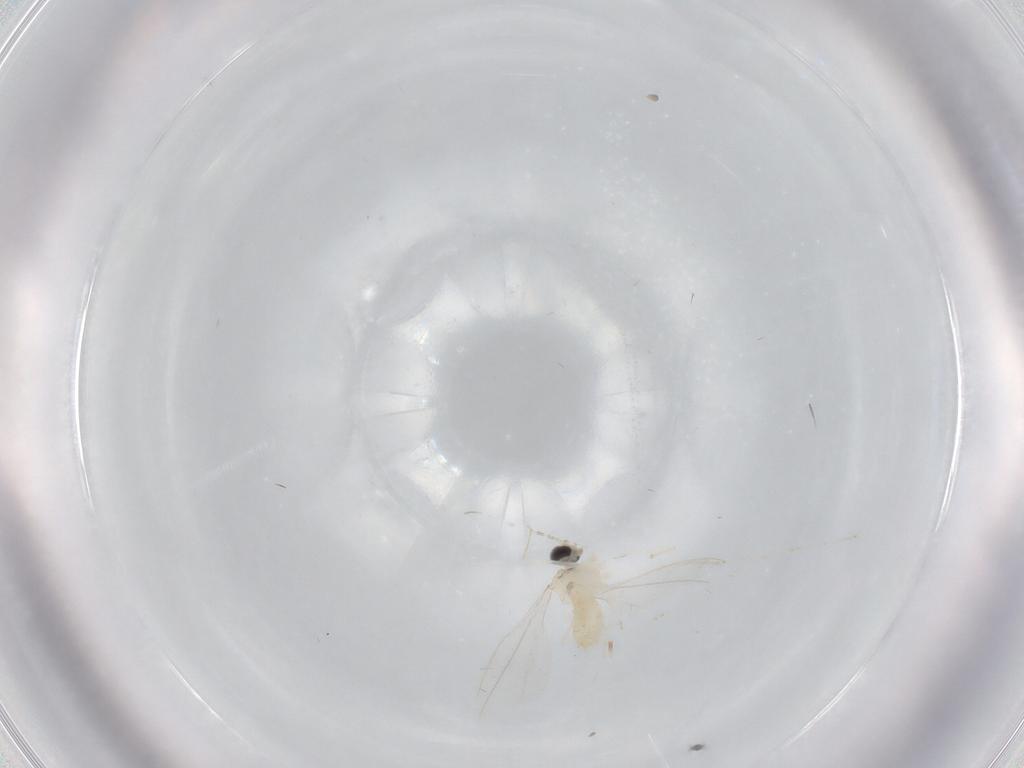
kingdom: Animalia
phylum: Arthropoda
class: Insecta
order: Diptera
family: Cecidomyiidae
